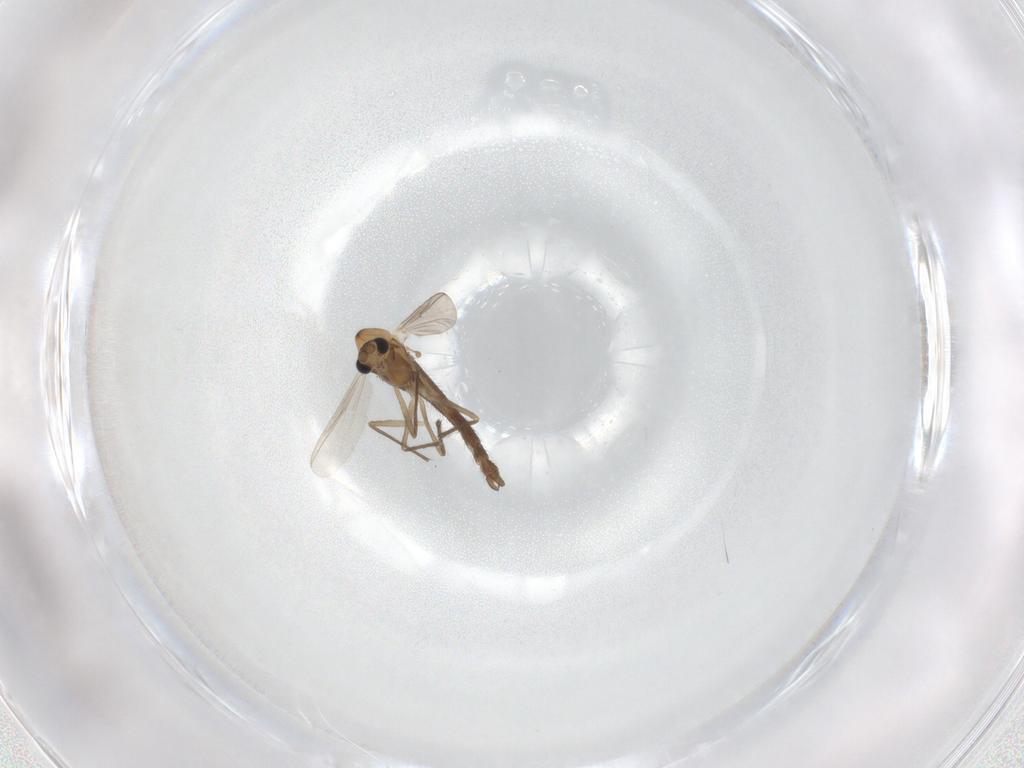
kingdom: Animalia
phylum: Arthropoda
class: Insecta
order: Diptera
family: Chironomidae
